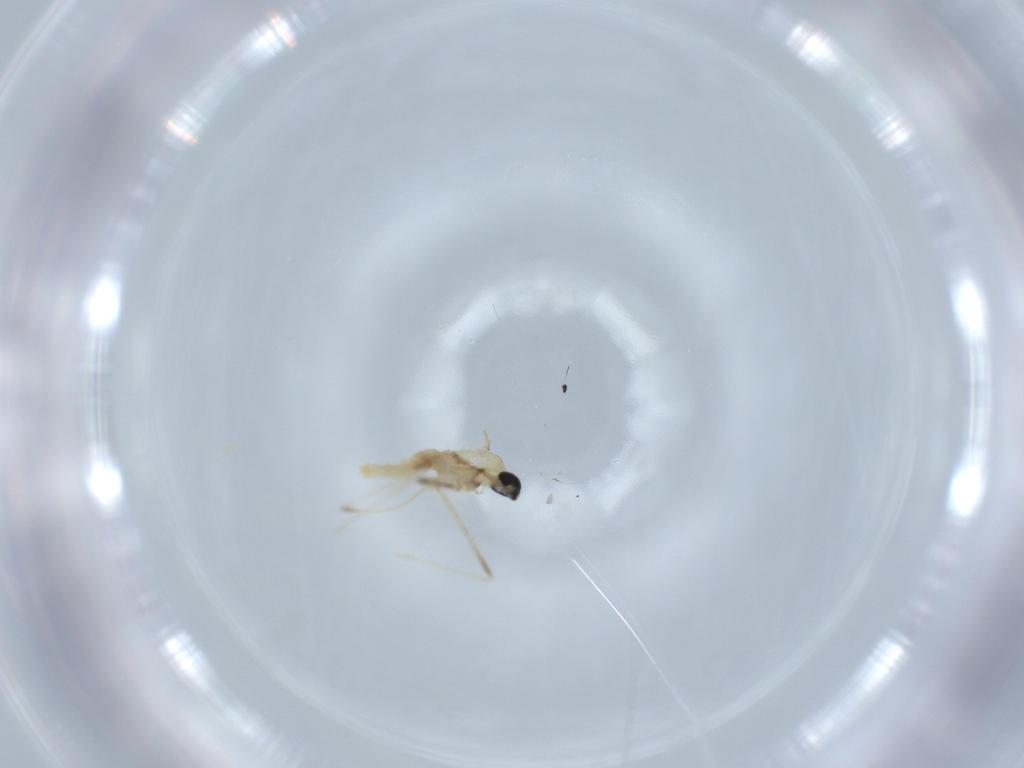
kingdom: Animalia
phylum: Arthropoda
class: Insecta
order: Diptera
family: Cecidomyiidae
